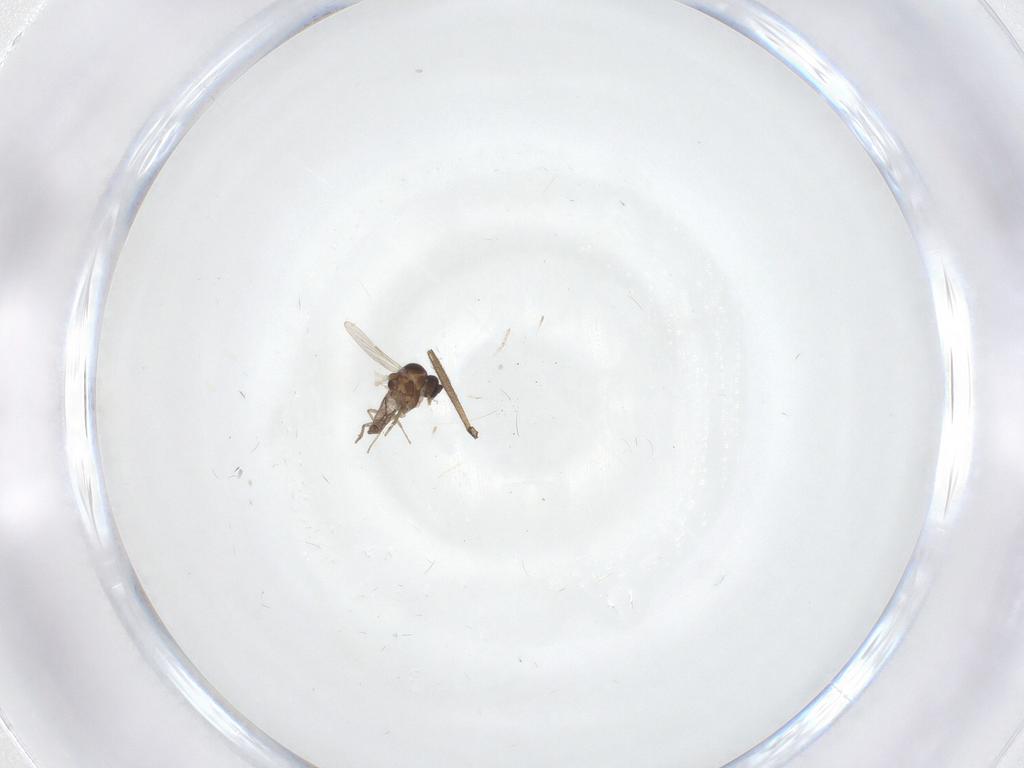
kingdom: Animalia
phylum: Arthropoda
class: Insecta
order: Diptera
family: Cecidomyiidae
